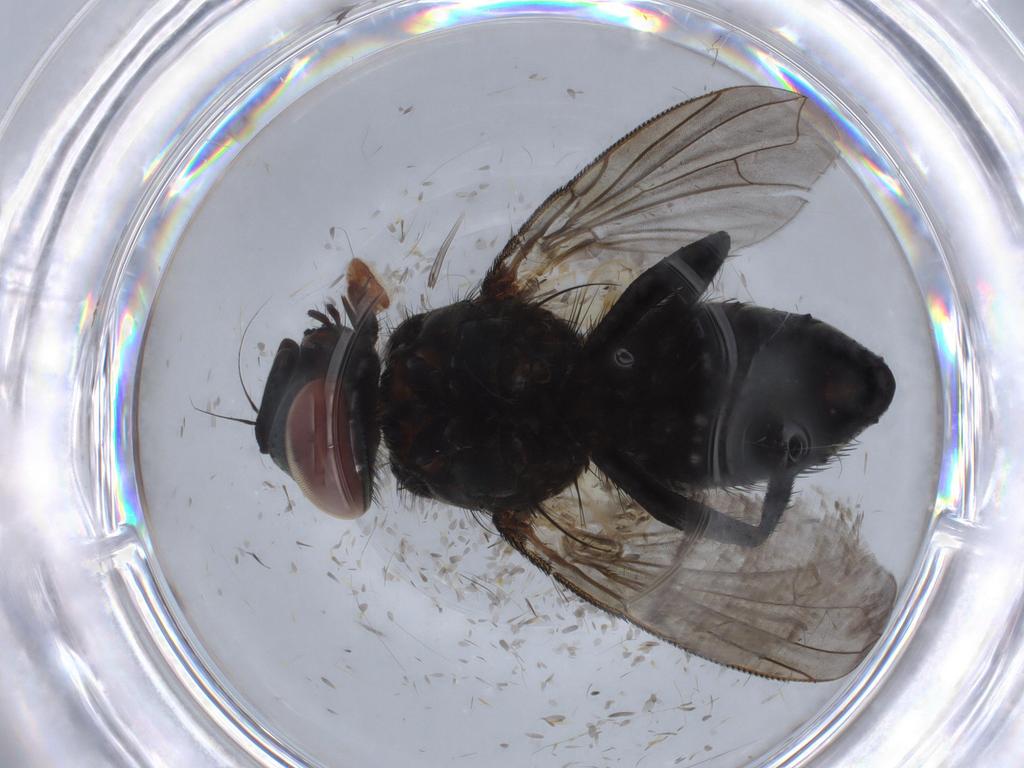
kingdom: Animalia
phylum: Arthropoda
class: Insecta
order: Diptera
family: Tachinidae
